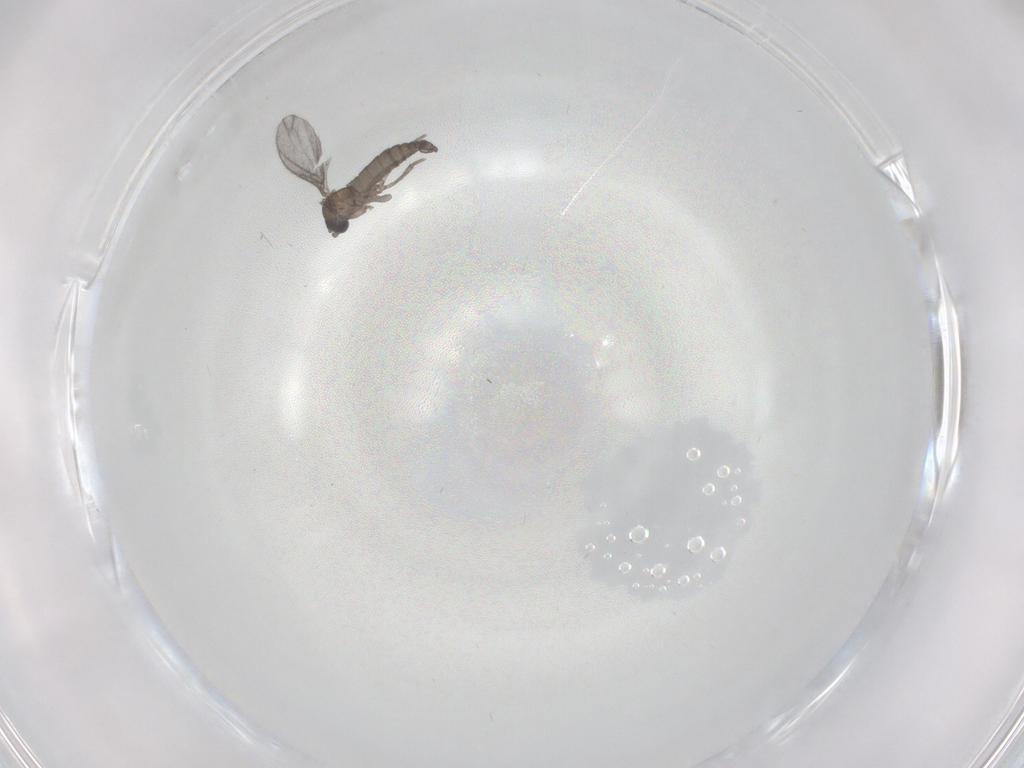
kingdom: Animalia
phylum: Arthropoda
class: Insecta
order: Diptera
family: Sciaridae
